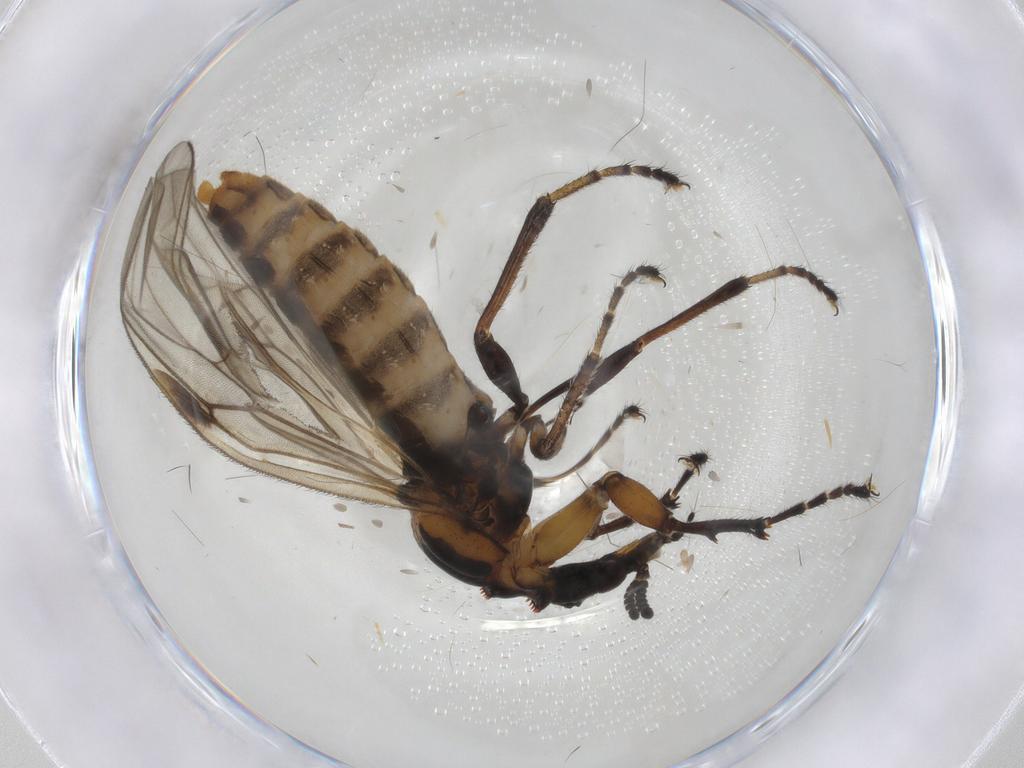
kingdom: Animalia
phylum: Arthropoda
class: Insecta
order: Diptera
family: Bibionidae
